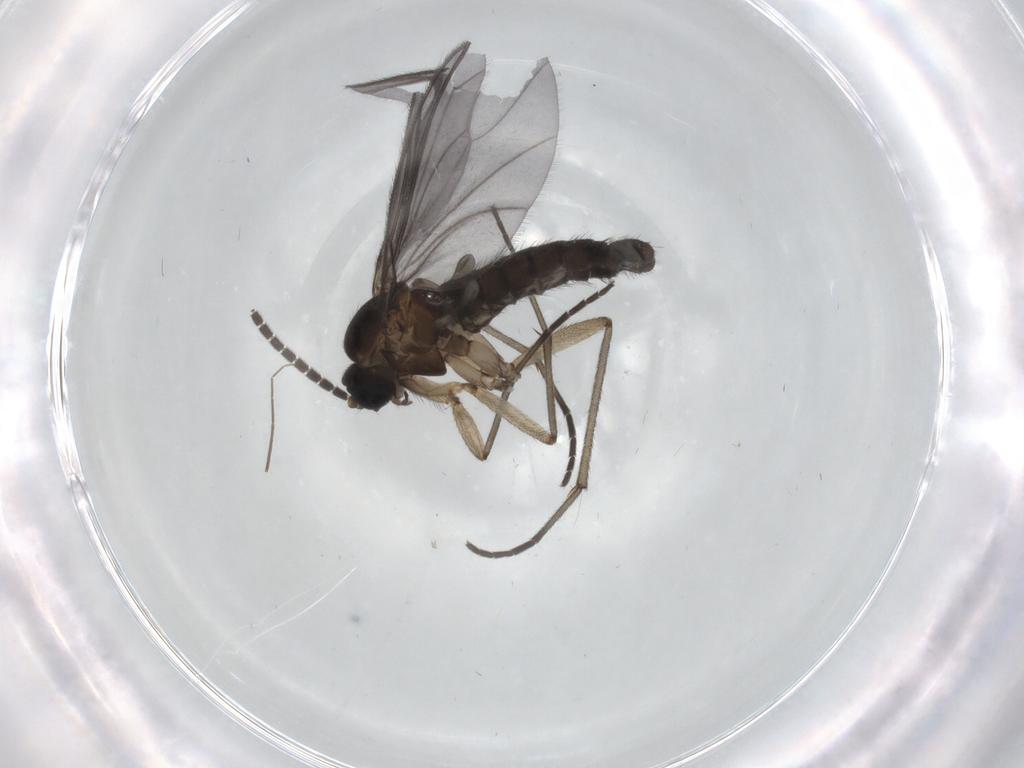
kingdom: Animalia
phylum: Arthropoda
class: Insecta
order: Diptera
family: Sciaridae
